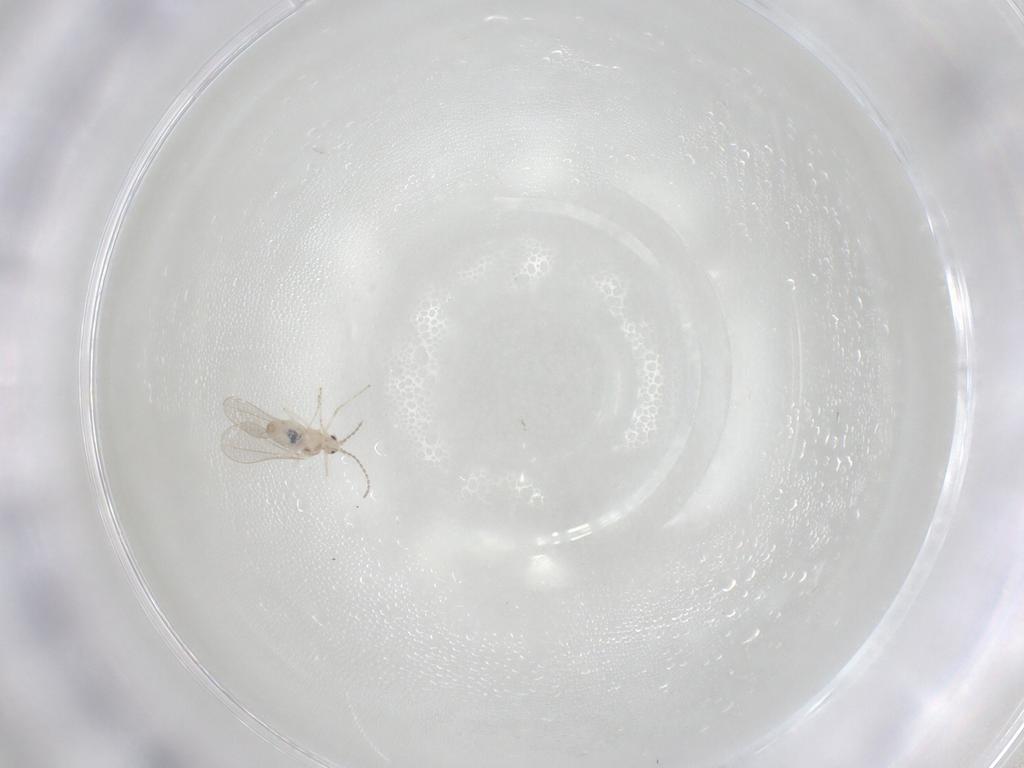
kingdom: Animalia
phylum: Arthropoda
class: Insecta
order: Diptera
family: Cecidomyiidae
